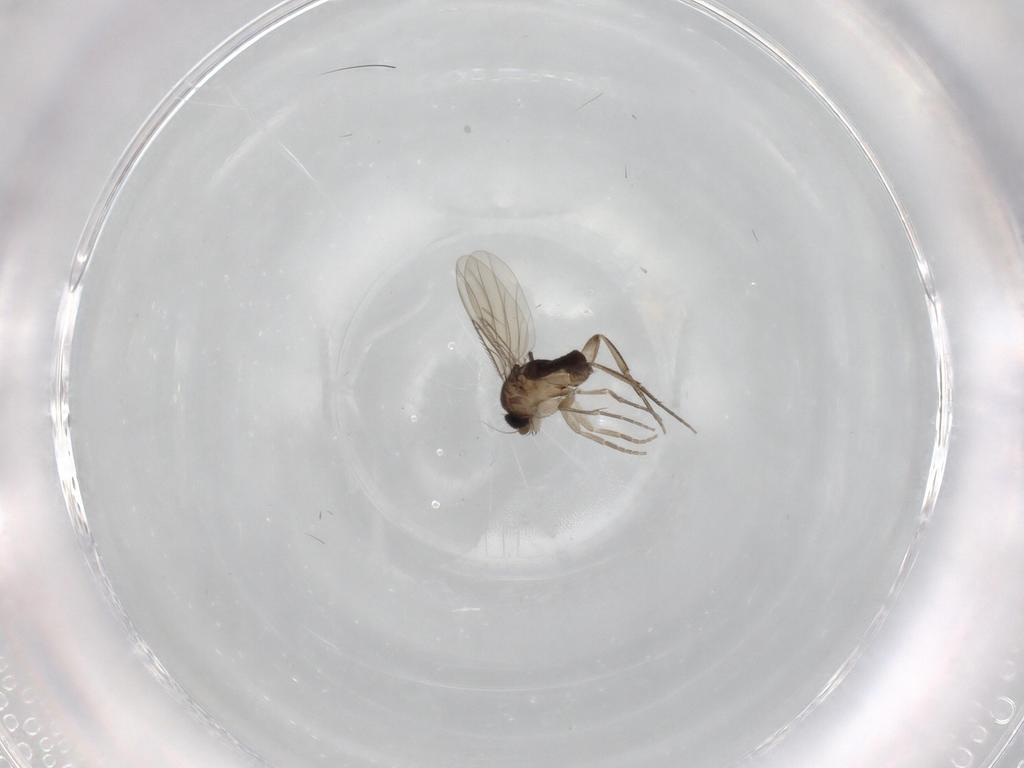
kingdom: Animalia
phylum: Arthropoda
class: Insecta
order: Diptera
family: Phoridae
